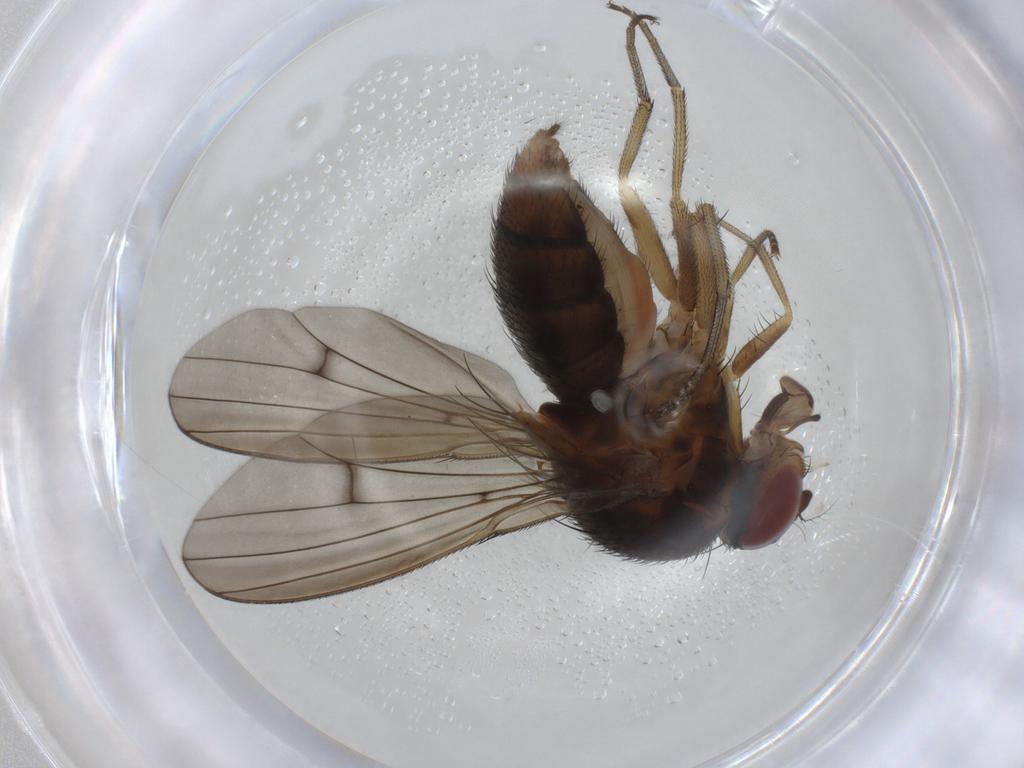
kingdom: Animalia
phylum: Arthropoda
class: Insecta
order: Diptera
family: Curtonotidae
